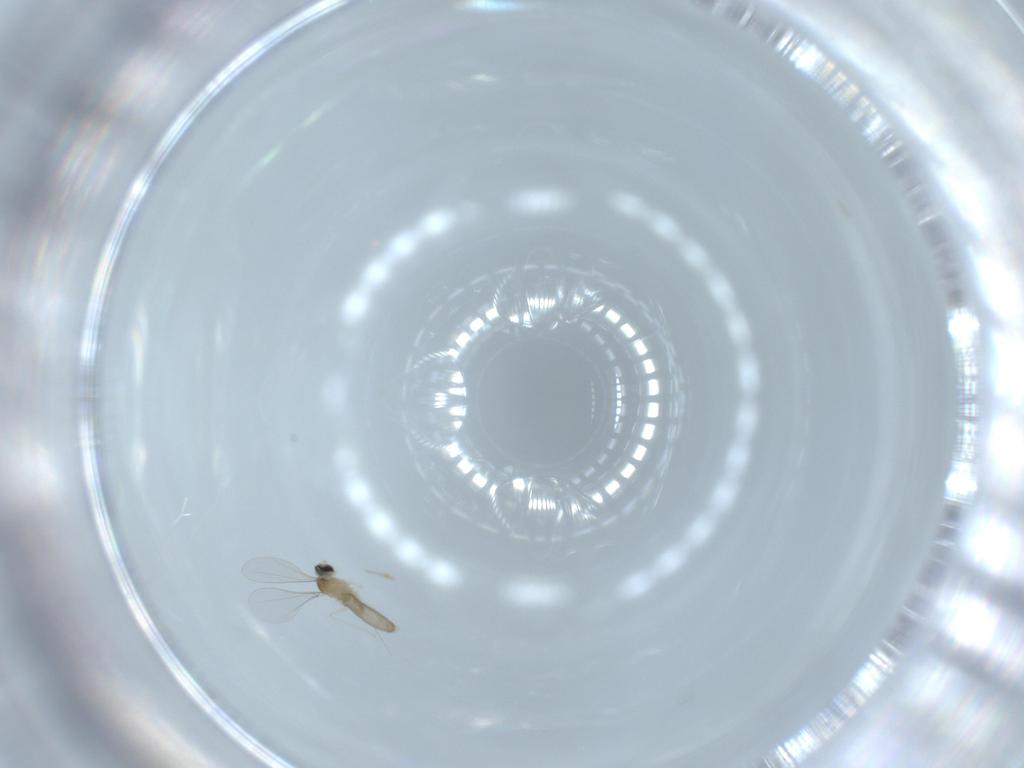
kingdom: Animalia
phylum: Arthropoda
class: Insecta
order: Diptera
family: Cecidomyiidae
